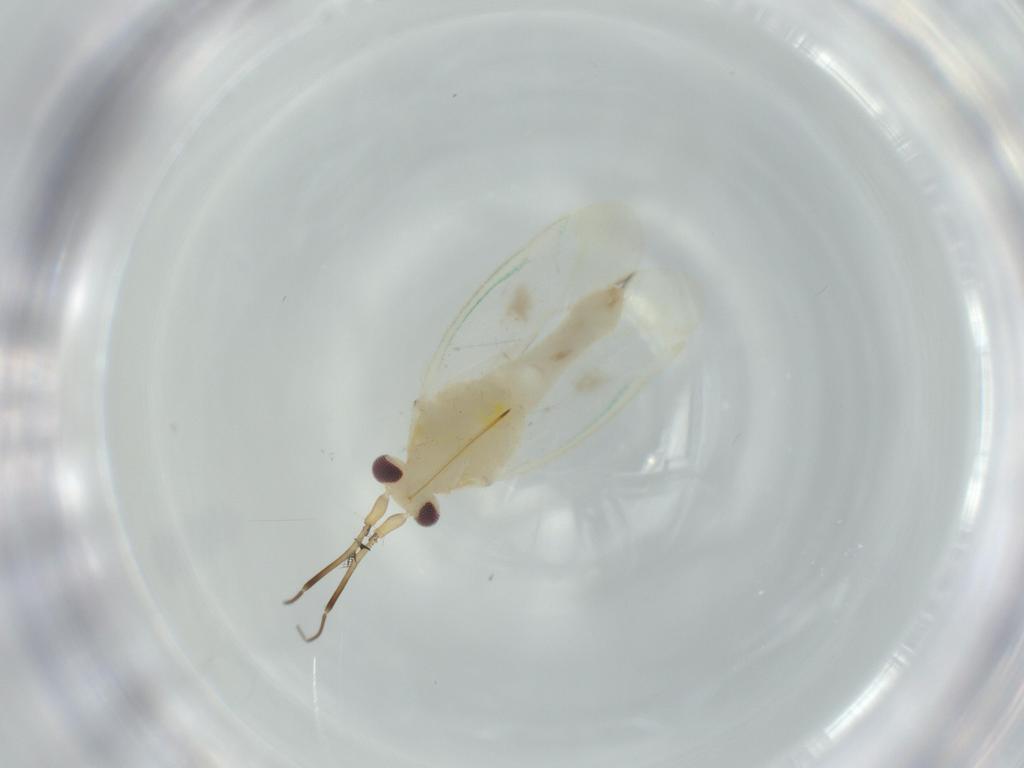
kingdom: Animalia
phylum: Arthropoda
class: Insecta
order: Hemiptera
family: Miridae
